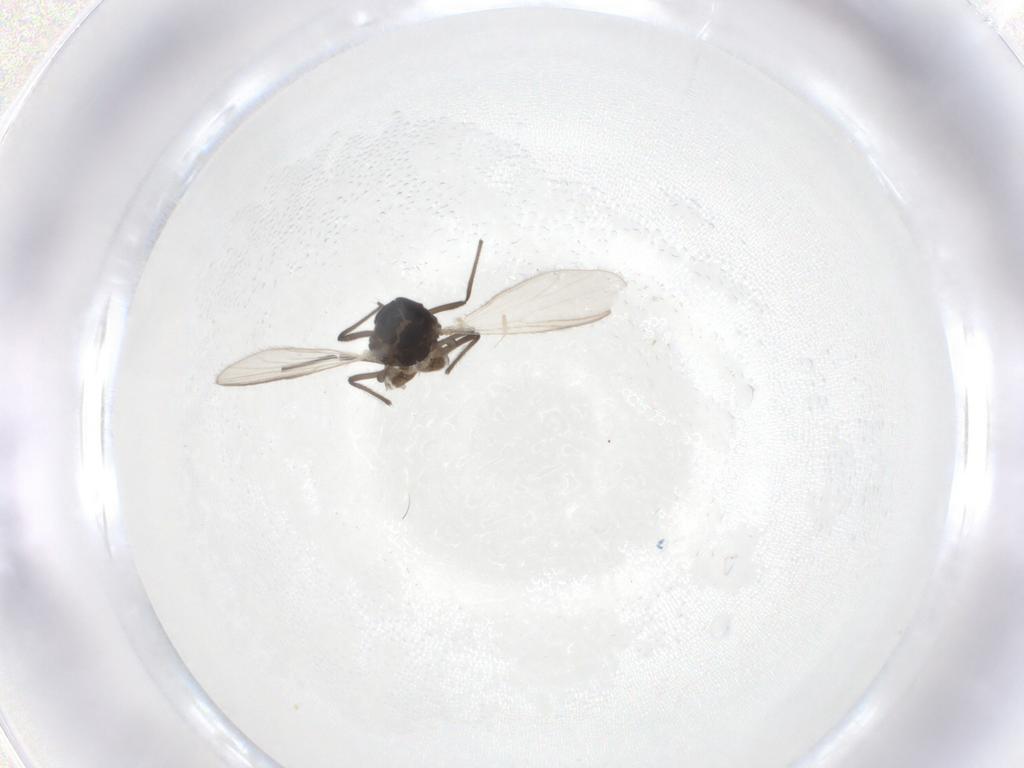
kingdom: Animalia
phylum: Arthropoda
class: Insecta
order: Diptera
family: Chironomidae
